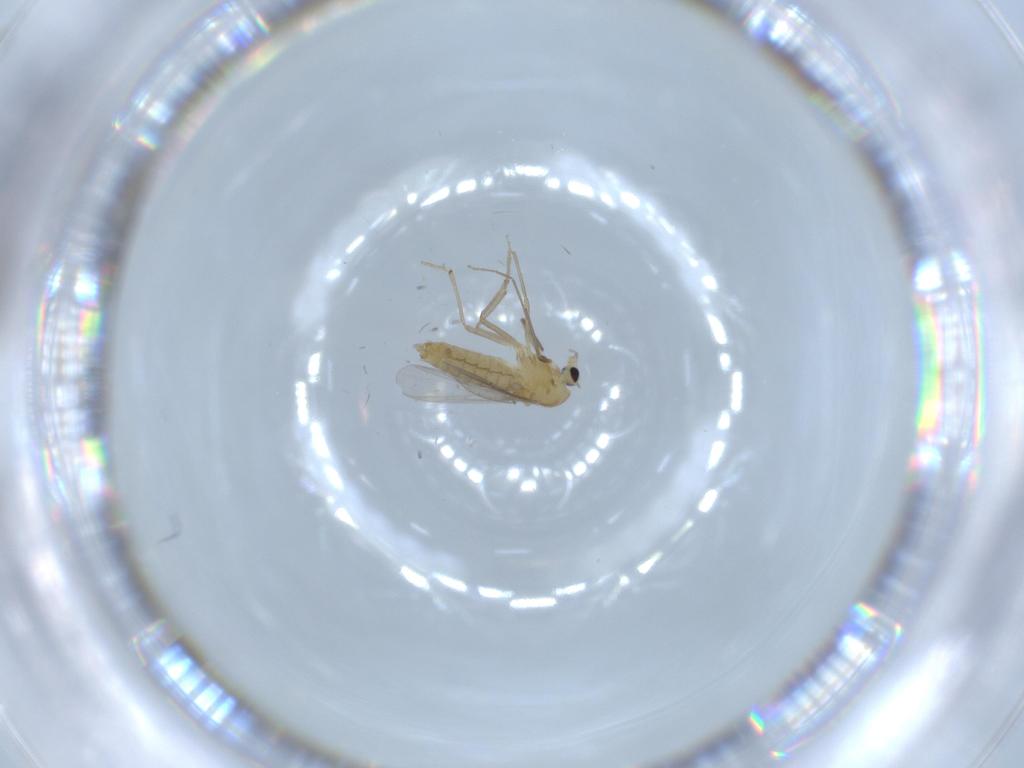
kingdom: Animalia
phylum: Arthropoda
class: Insecta
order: Diptera
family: Chironomidae
